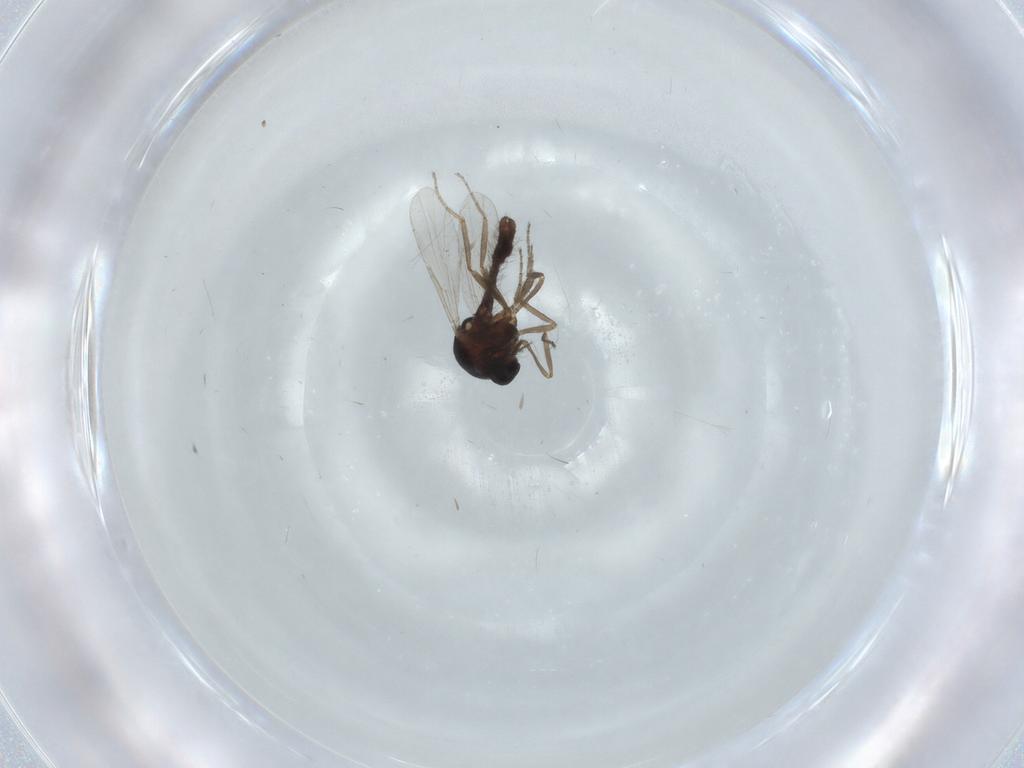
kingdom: Animalia
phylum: Arthropoda
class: Insecta
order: Diptera
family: Ceratopogonidae
